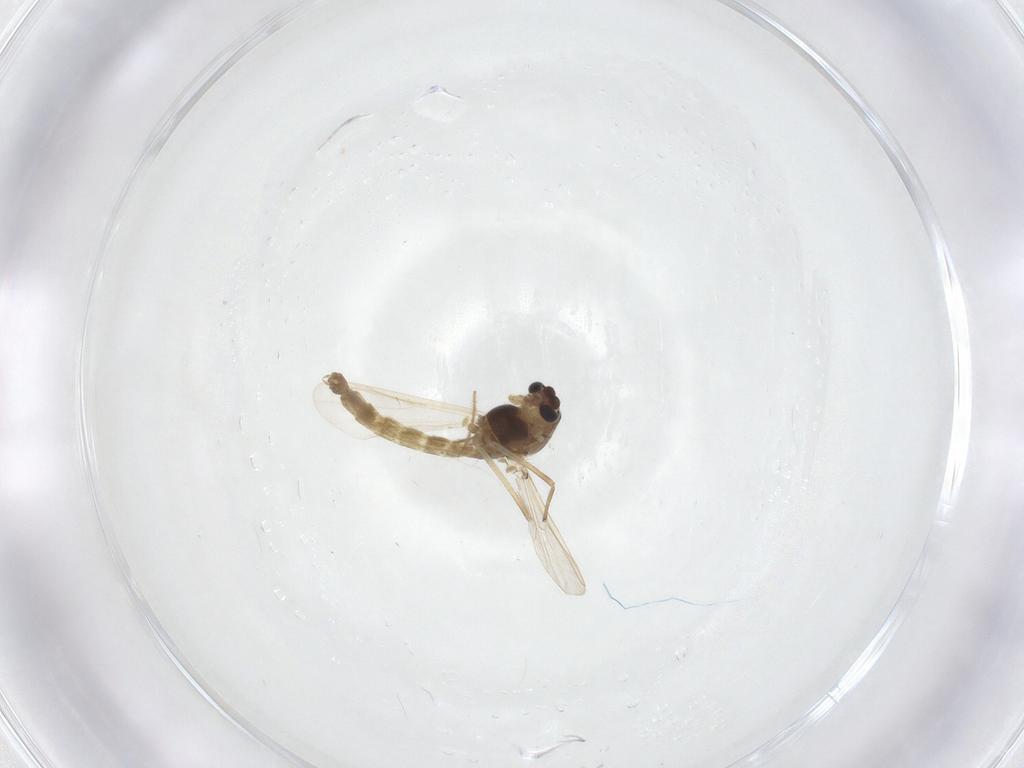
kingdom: Animalia
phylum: Arthropoda
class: Insecta
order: Diptera
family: Chironomidae
